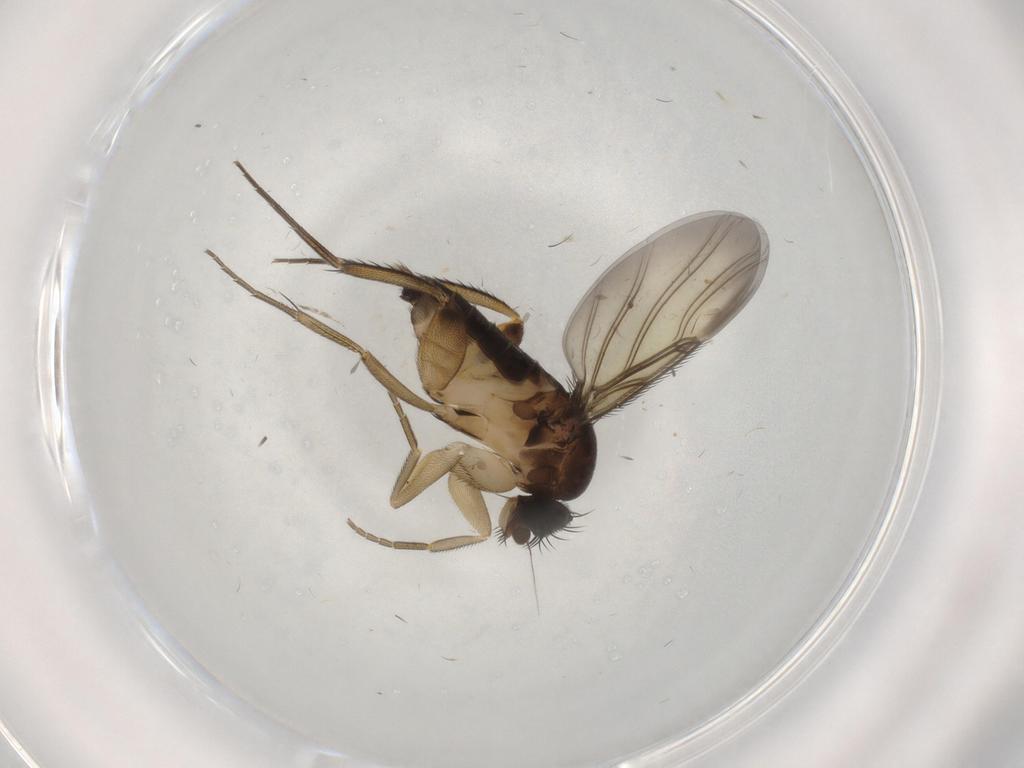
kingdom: Animalia
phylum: Arthropoda
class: Insecta
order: Diptera
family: Phoridae
